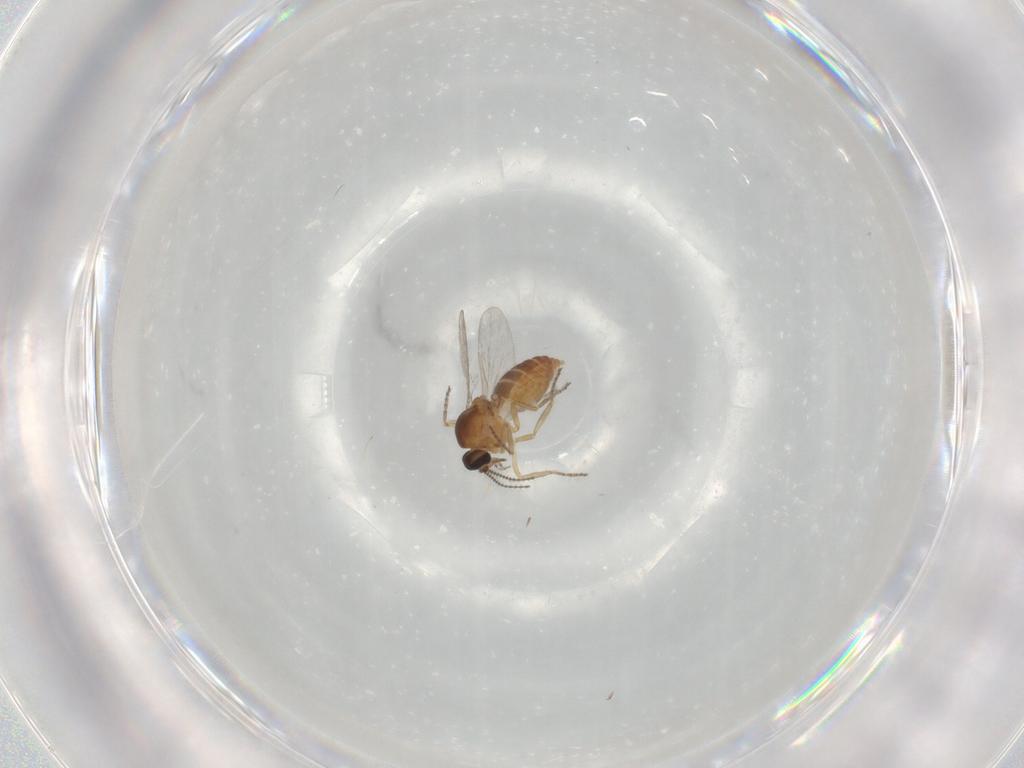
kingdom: Animalia
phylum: Arthropoda
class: Insecta
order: Diptera
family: Ceratopogonidae
